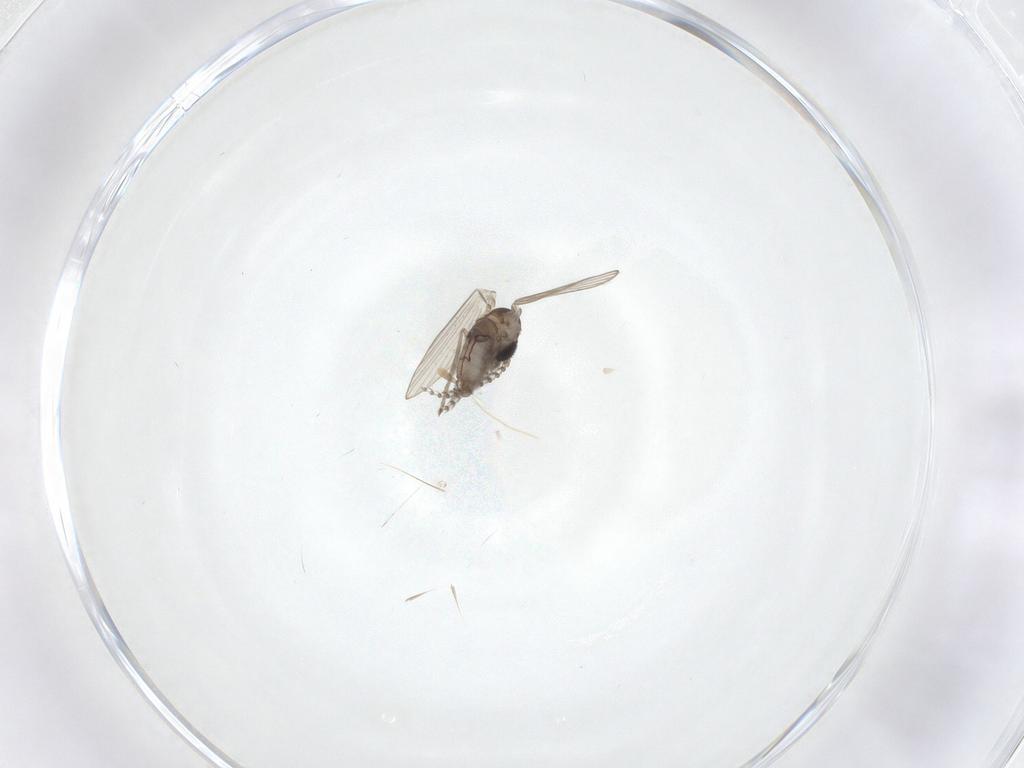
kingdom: Animalia
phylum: Arthropoda
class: Insecta
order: Diptera
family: Psychodidae
